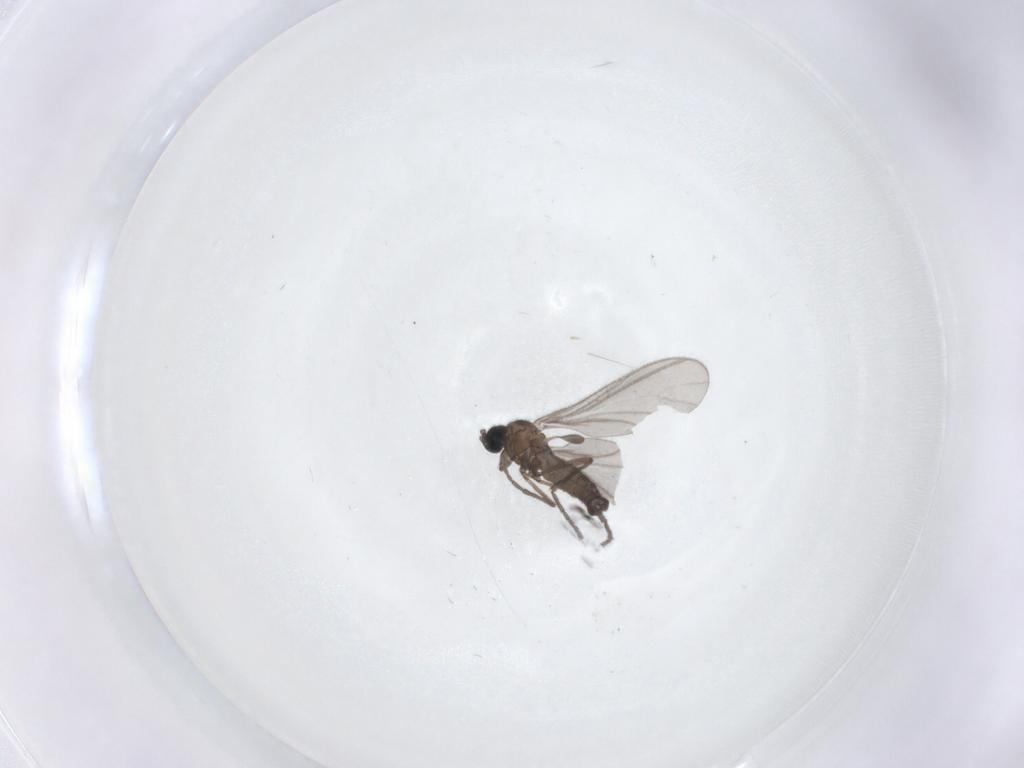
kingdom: Animalia
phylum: Arthropoda
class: Insecta
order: Diptera
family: Sciaridae
